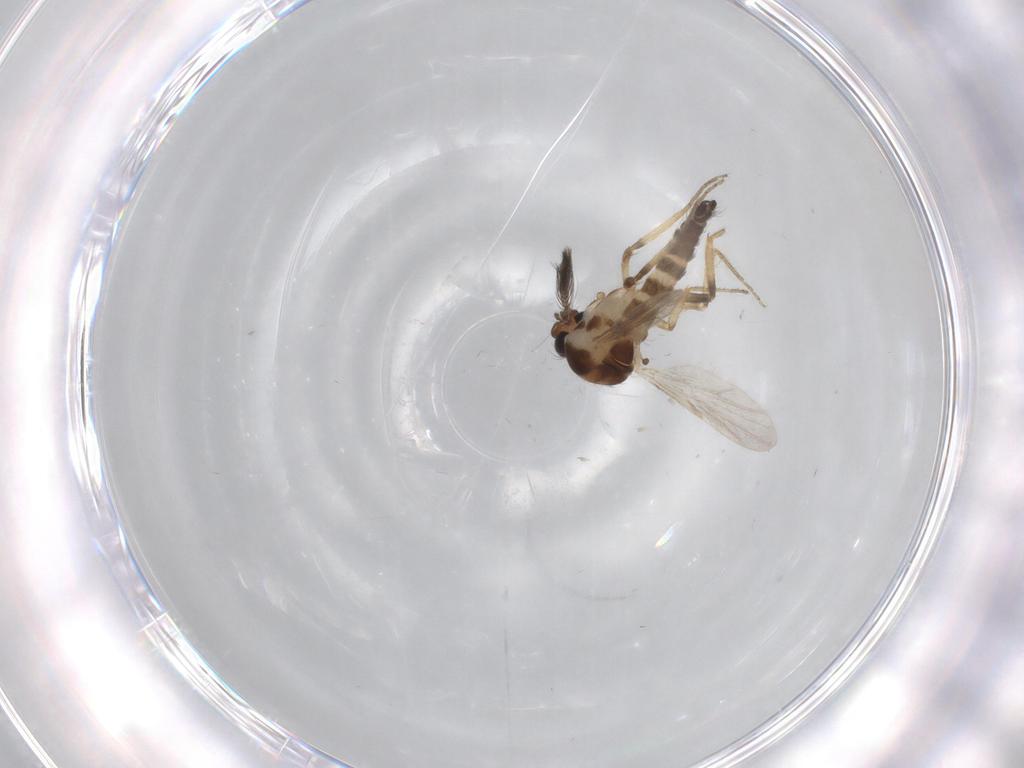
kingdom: Animalia
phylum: Arthropoda
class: Insecta
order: Diptera
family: Ceratopogonidae
